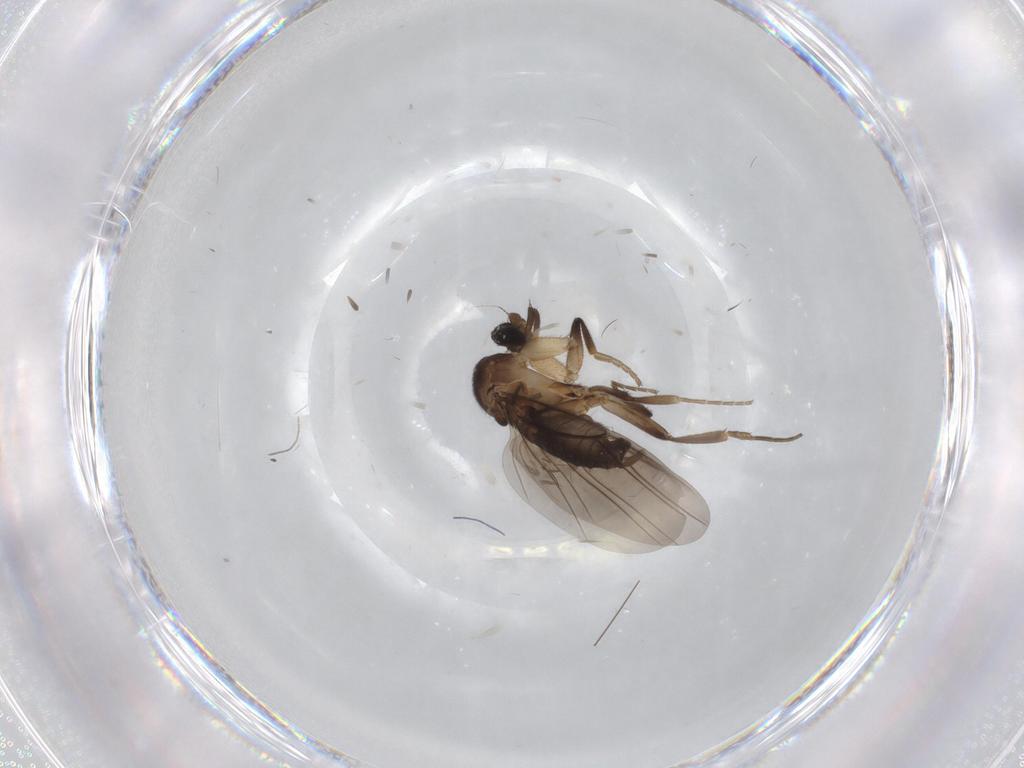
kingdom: Animalia
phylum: Arthropoda
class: Insecta
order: Diptera
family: Phoridae
